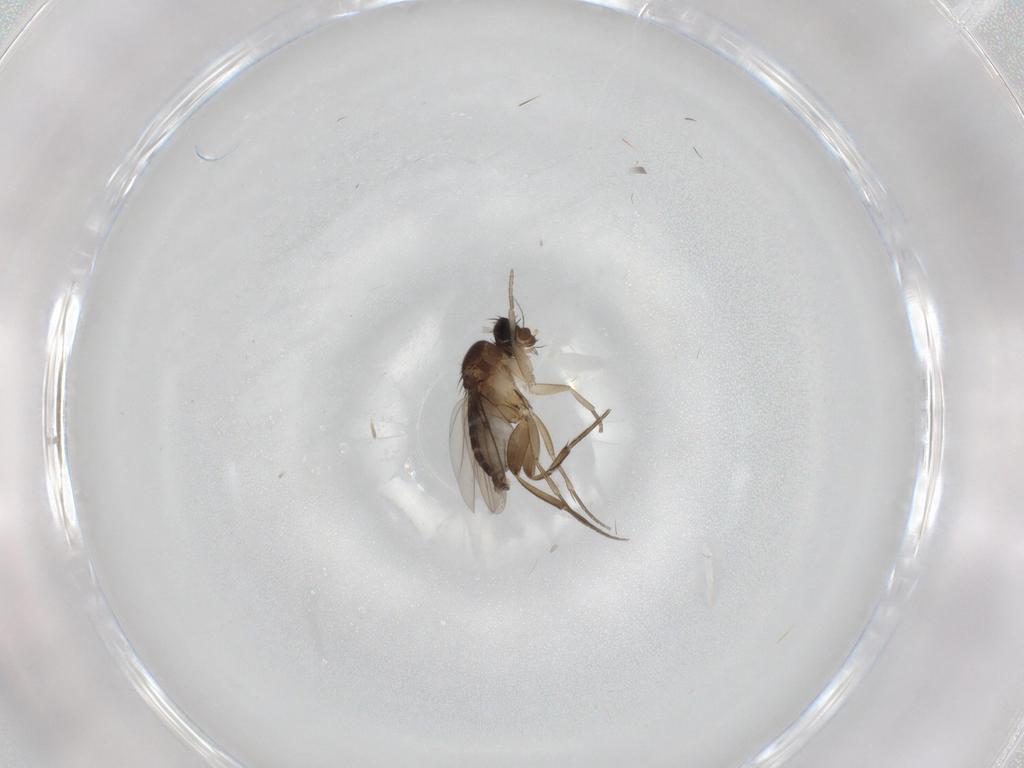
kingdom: Animalia
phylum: Arthropoda
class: Insecta
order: Diptera
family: Phoridae
